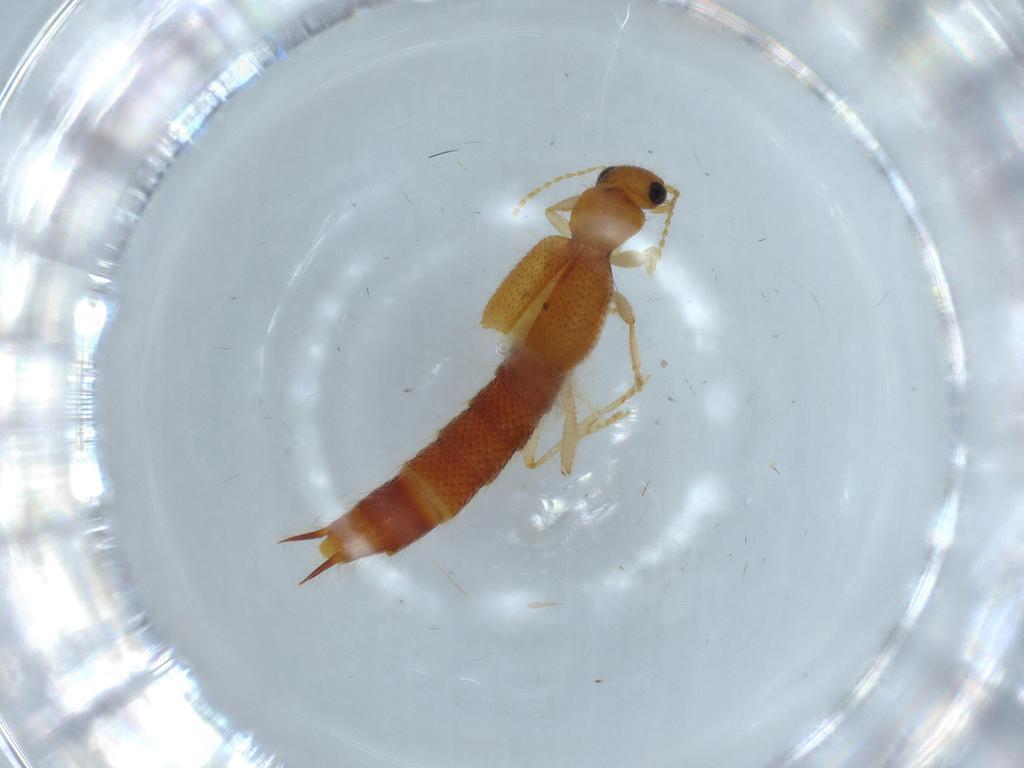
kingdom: Animalia
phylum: Arthropoda
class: Insecta
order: Coleoptera
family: Staphylinidae
